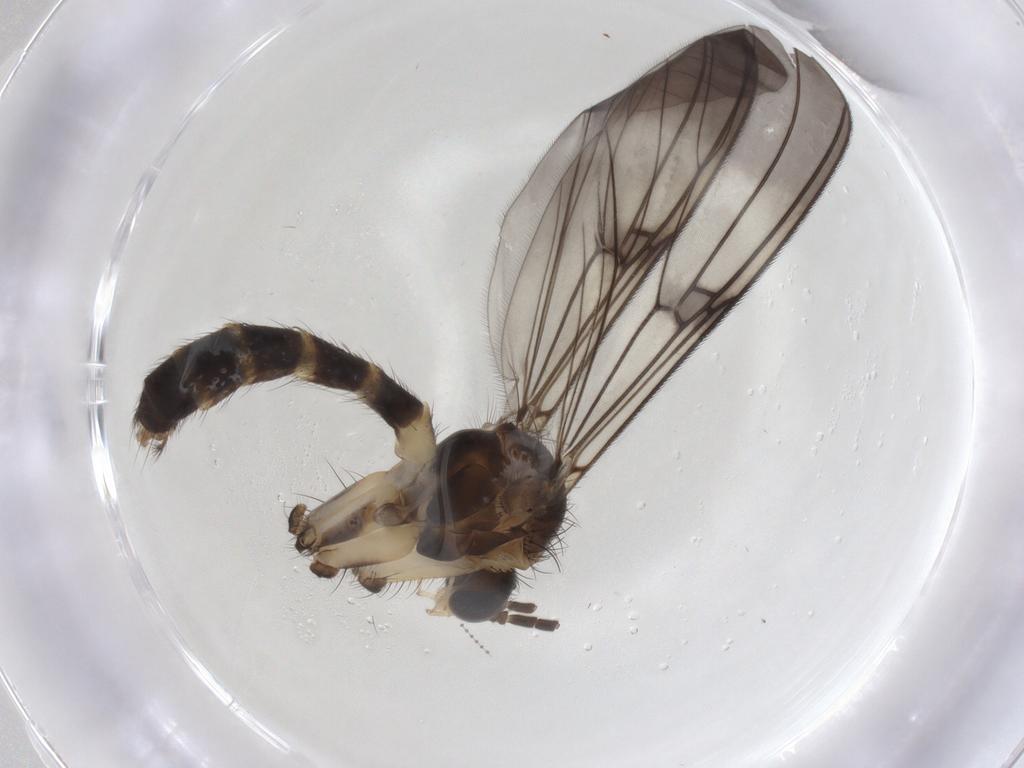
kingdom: Animalia
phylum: Arthropoda
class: Insecta
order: Diptera
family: Mycetophilidae
